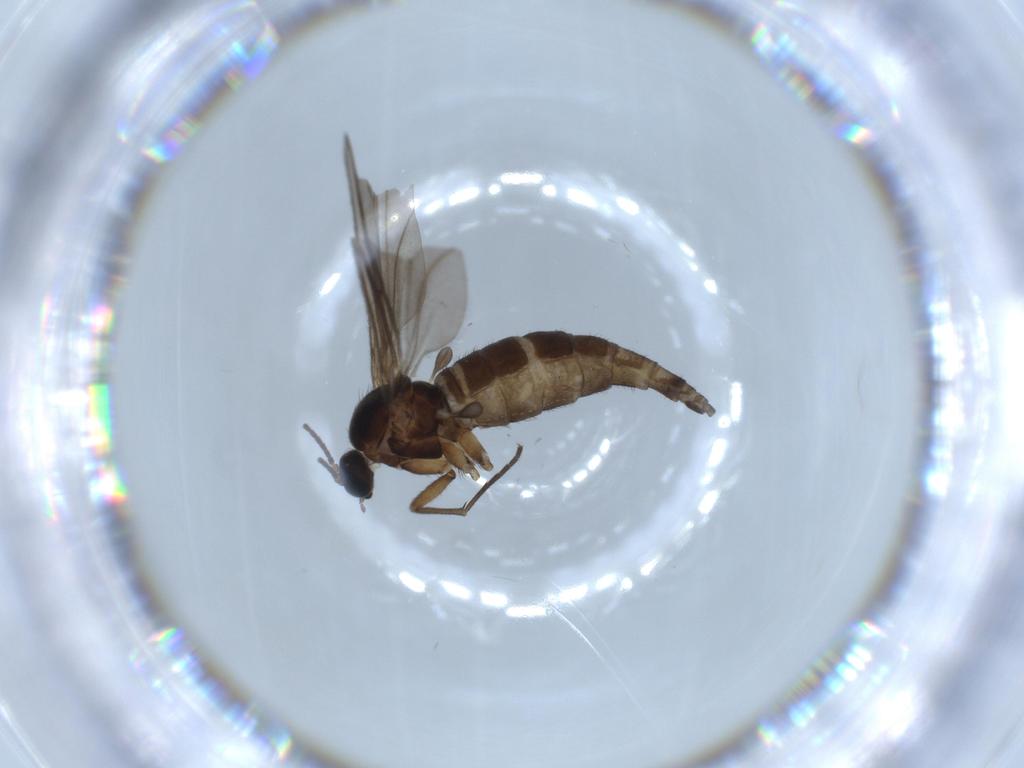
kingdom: Animalia
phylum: Arthropoda
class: Insecta
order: Diptera
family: Sciaridae
